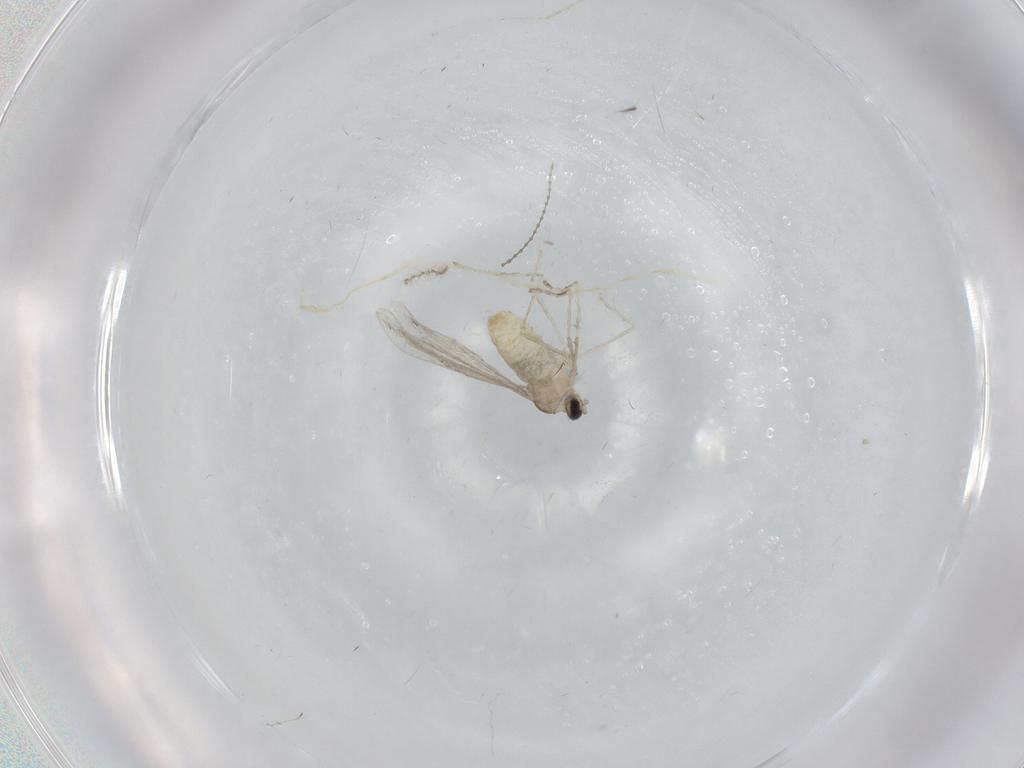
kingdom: Animalia
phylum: Arthropoda
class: Insecta
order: Diptera
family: Cecidomyiidae
